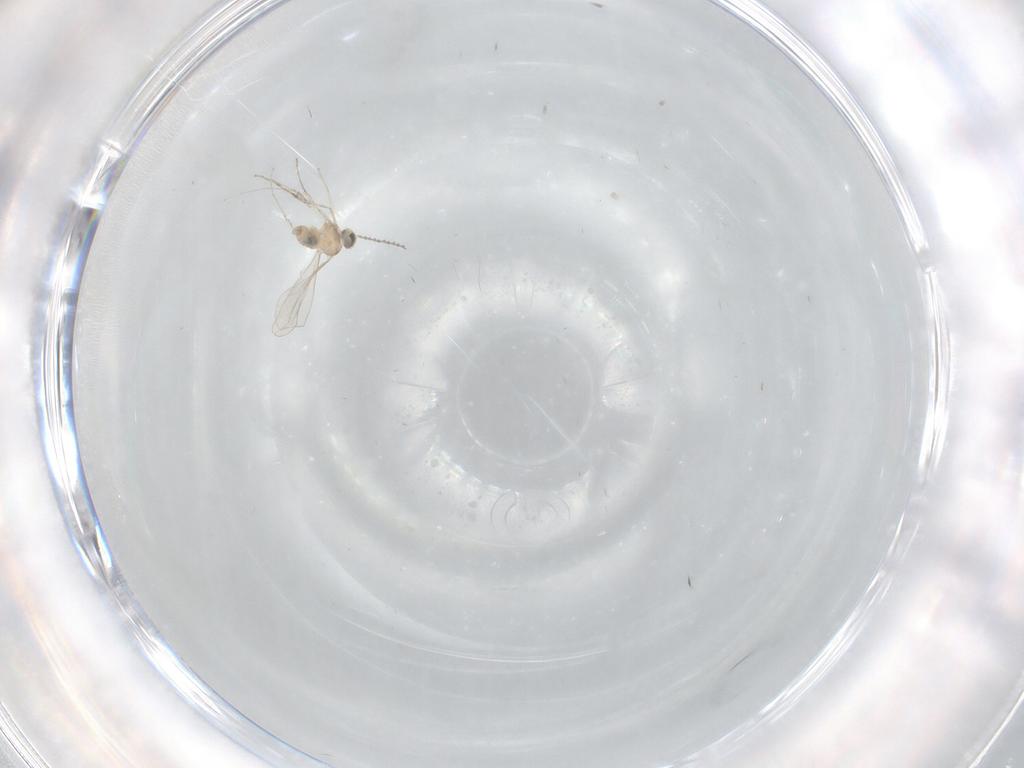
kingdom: Animalia
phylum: Arthropoda
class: Insecta
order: Diptera
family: Cecidomyiidae
